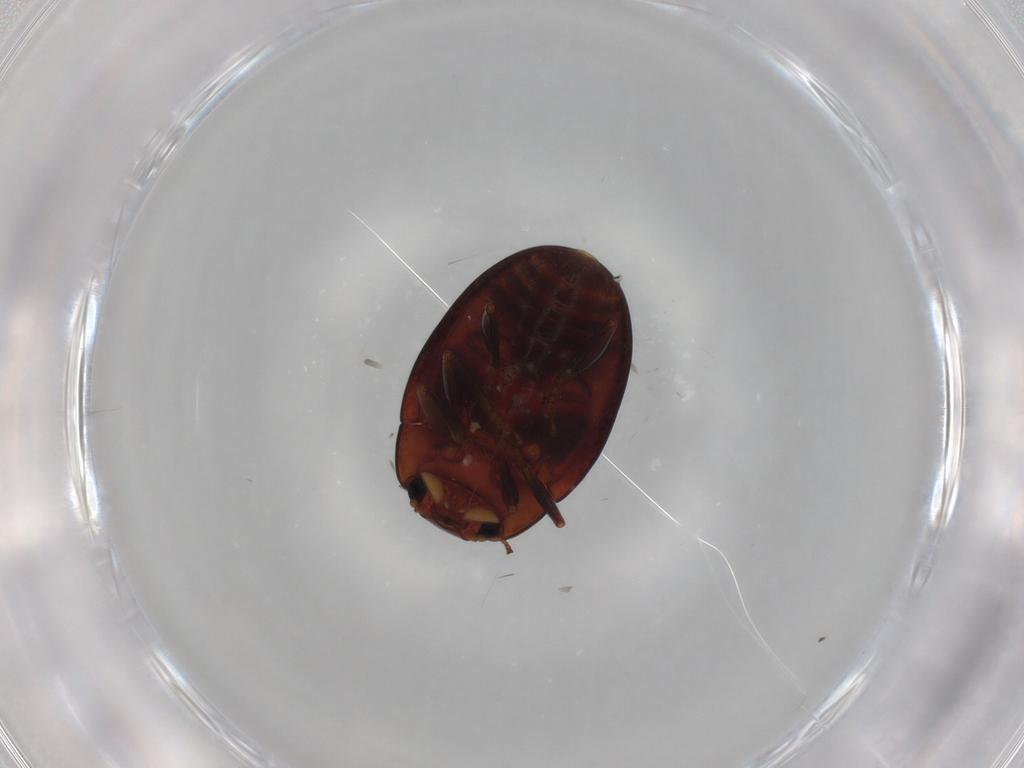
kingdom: Animalia
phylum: Arthropoda
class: Insecta
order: Coleoptera
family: Erotylidae
